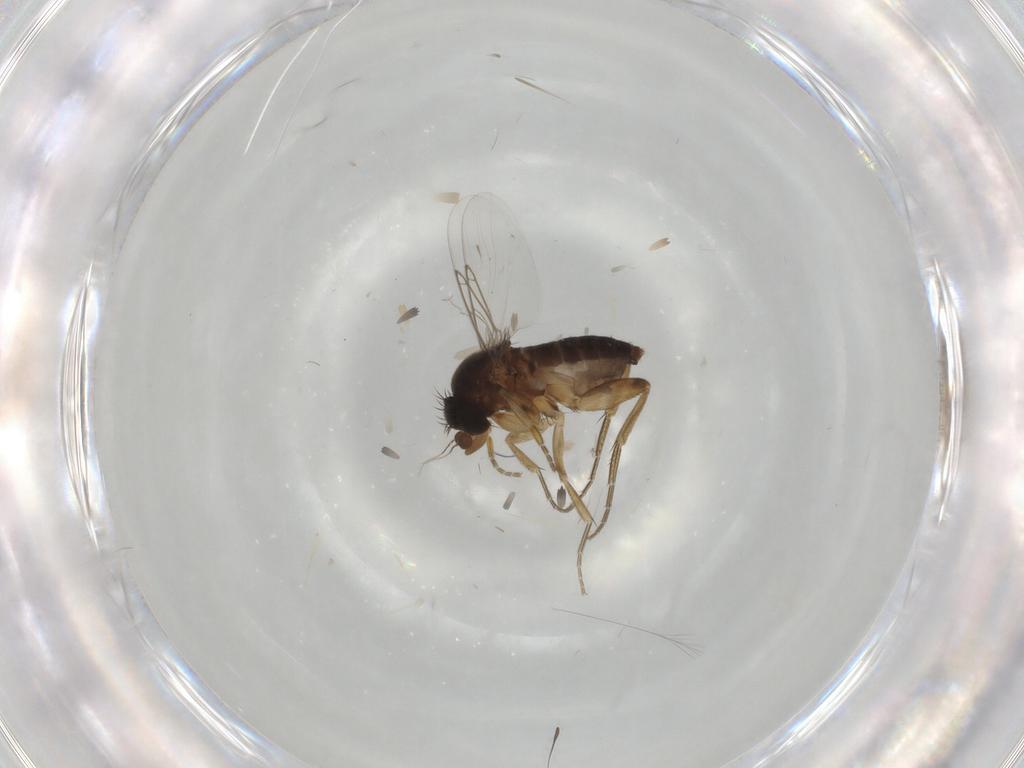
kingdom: Animalia
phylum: Arthropoda
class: Insecta
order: Diptera
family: Phoridae
